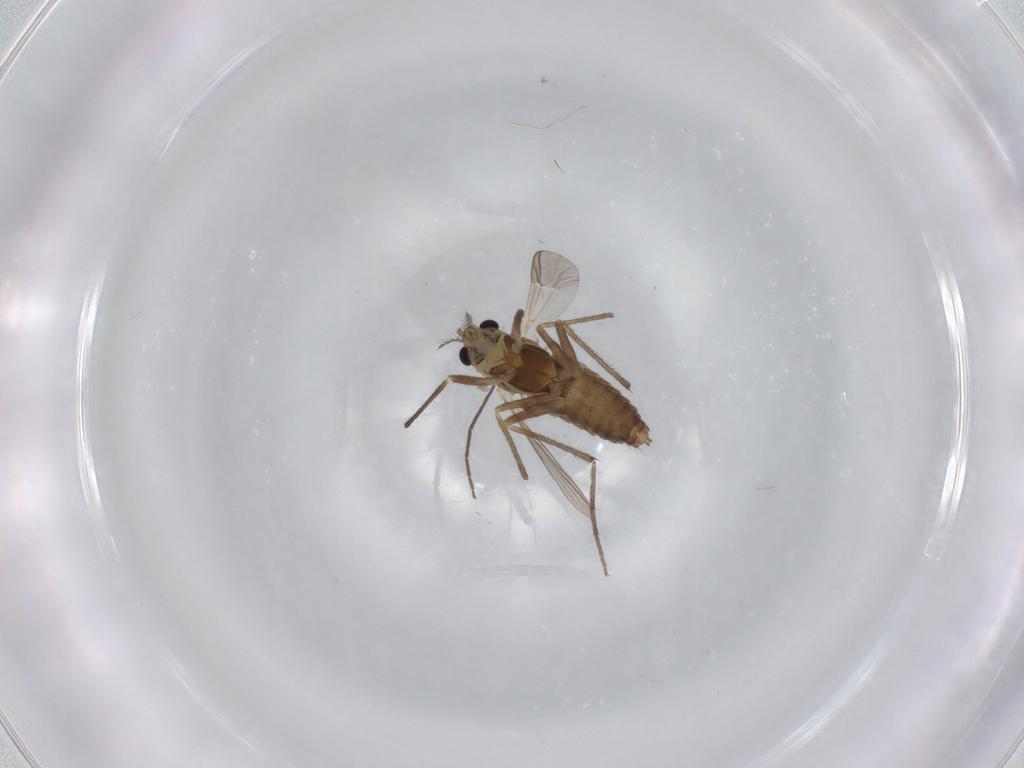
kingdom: Animalia
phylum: Arthropoda
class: Insecta
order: Diptera
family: Chironomidae
